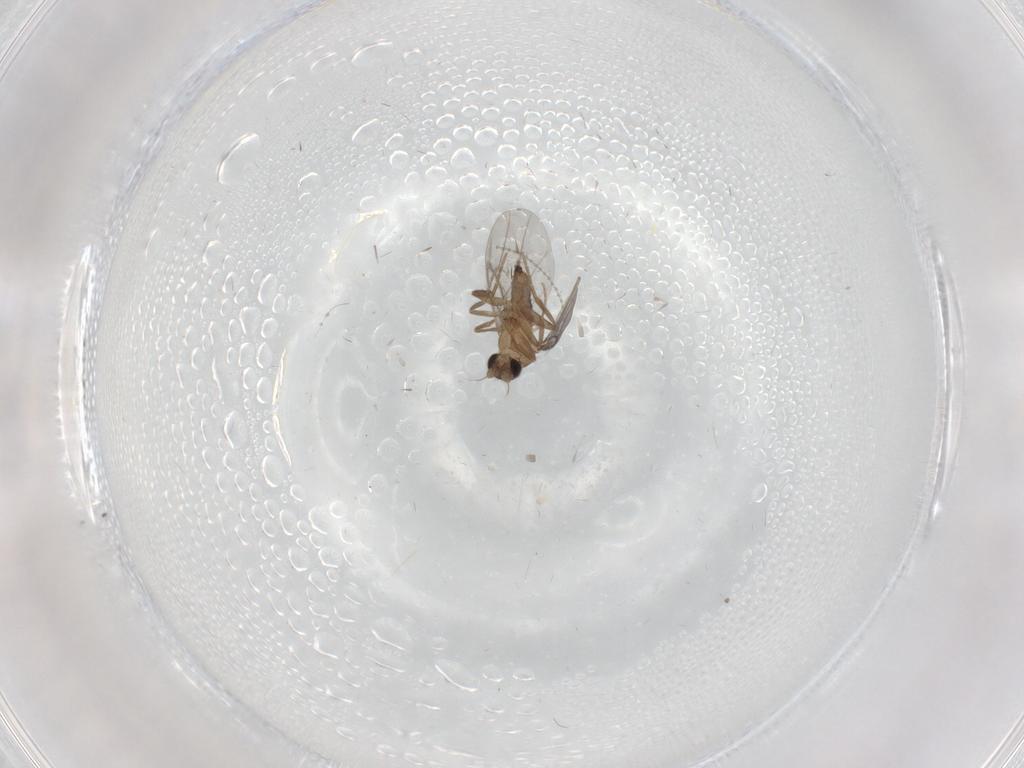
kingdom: Animalia
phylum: Arthropoda
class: Insecta
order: Diptera
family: Cecidomyiidae
